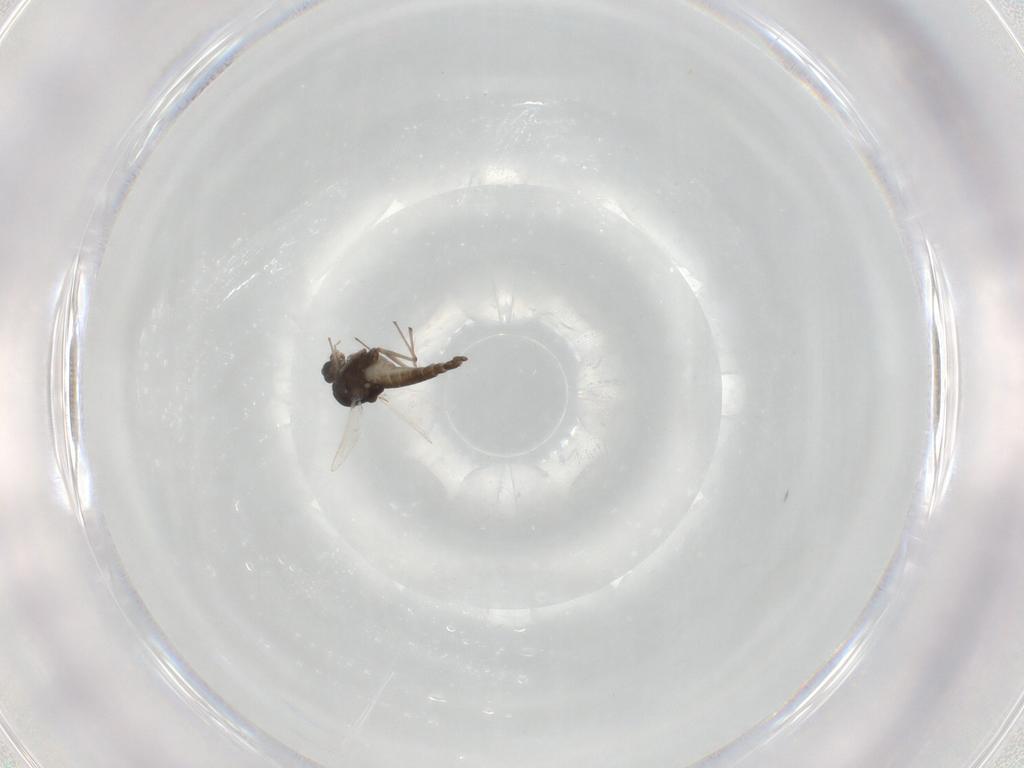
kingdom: Animalia
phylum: Arthropoda
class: Insecta
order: Diptera
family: Chironomidae
